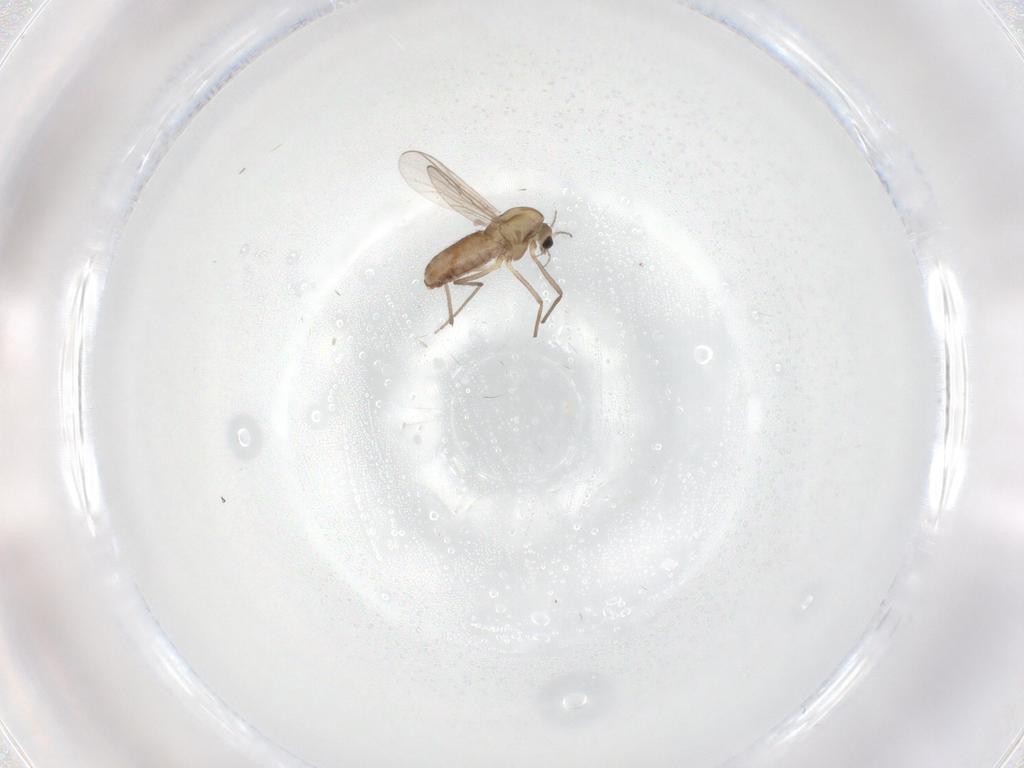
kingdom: Animalia
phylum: Arthropoda
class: Insecta
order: Diptera
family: Chironomidae
